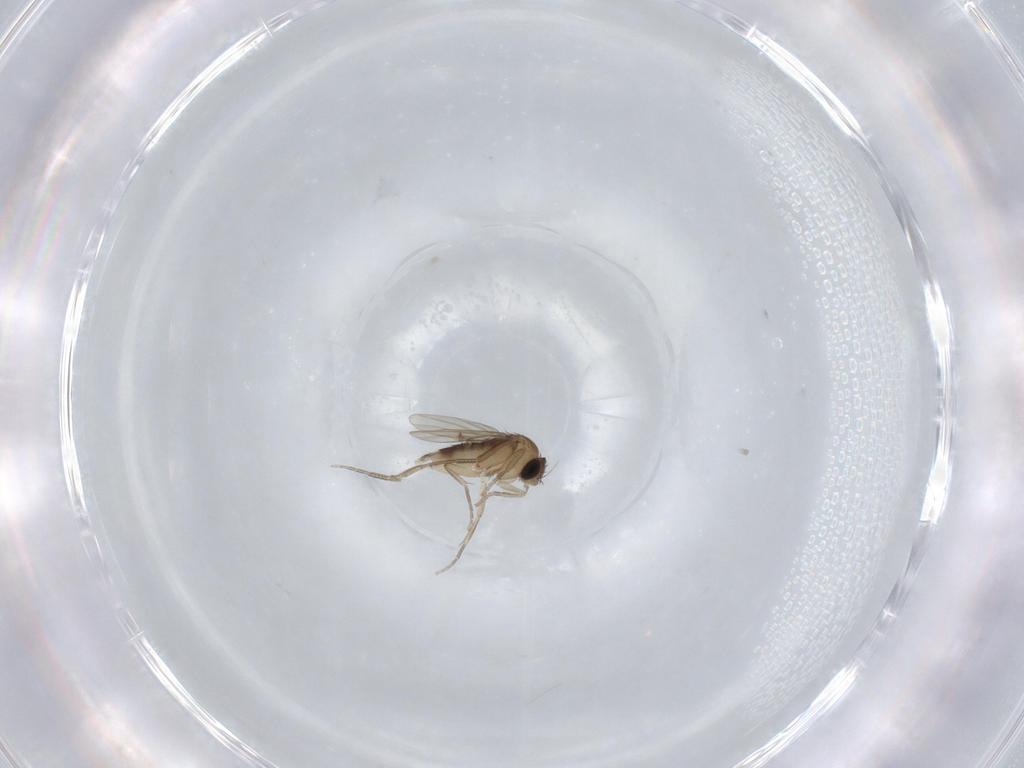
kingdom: Animalia
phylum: Arthropoda
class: Insecta
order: Diptera
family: Phoridae
